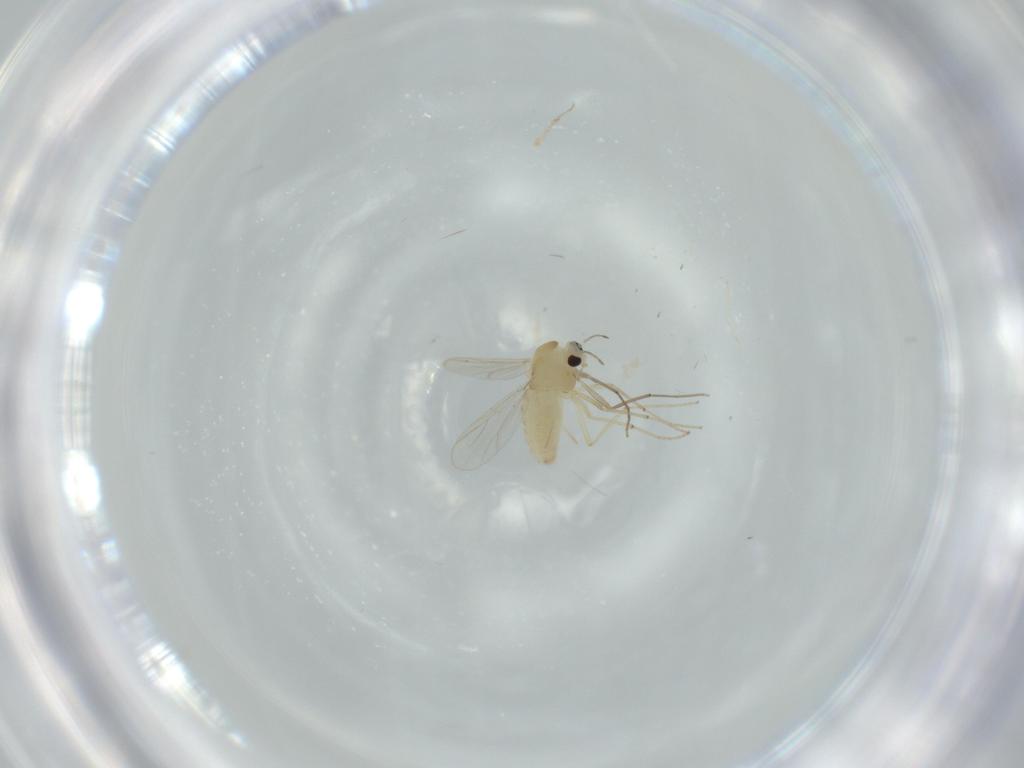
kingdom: Animalia
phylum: Arthropoda
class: Insecta
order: Diptera
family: Chironomidae
